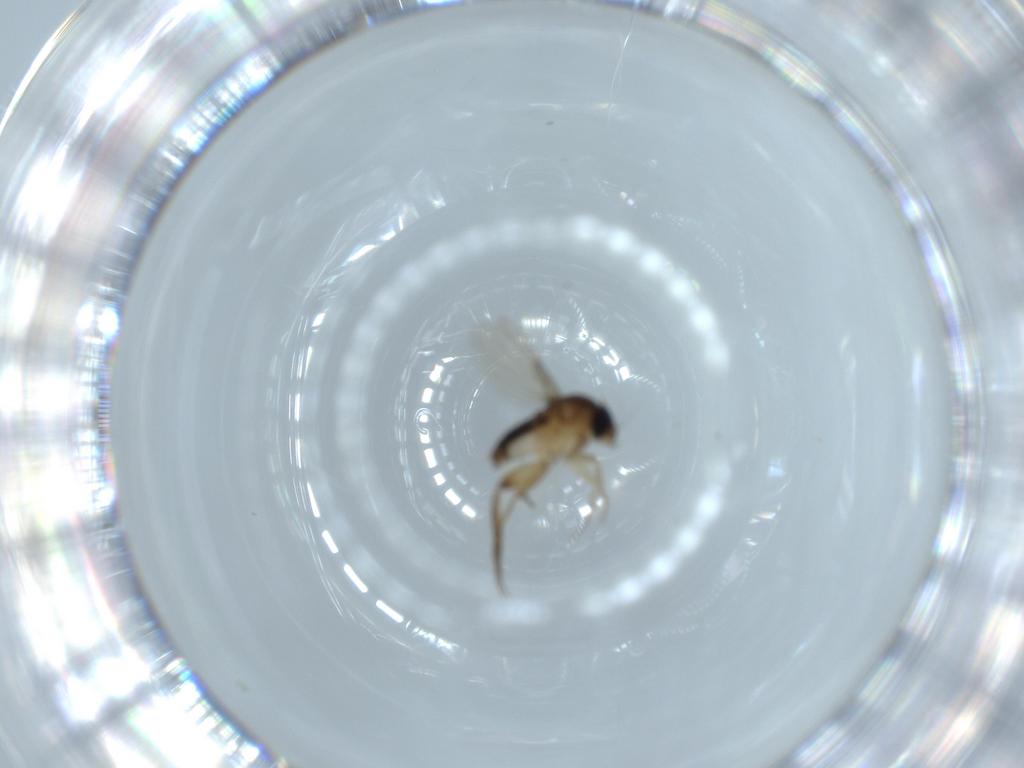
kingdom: Animalia
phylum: Arthropoda
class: Insecta
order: Diptera
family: Phoridae
